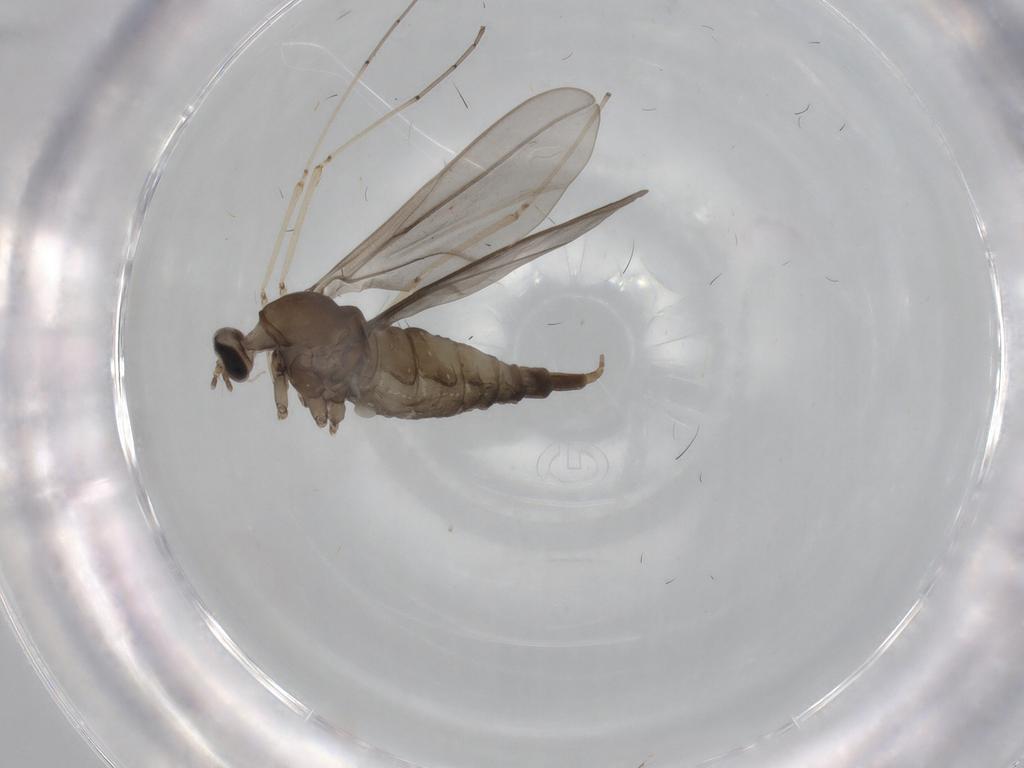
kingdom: Animalia
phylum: Arthropoda
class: Insecta
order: Diptera
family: Cecidomyiidae
